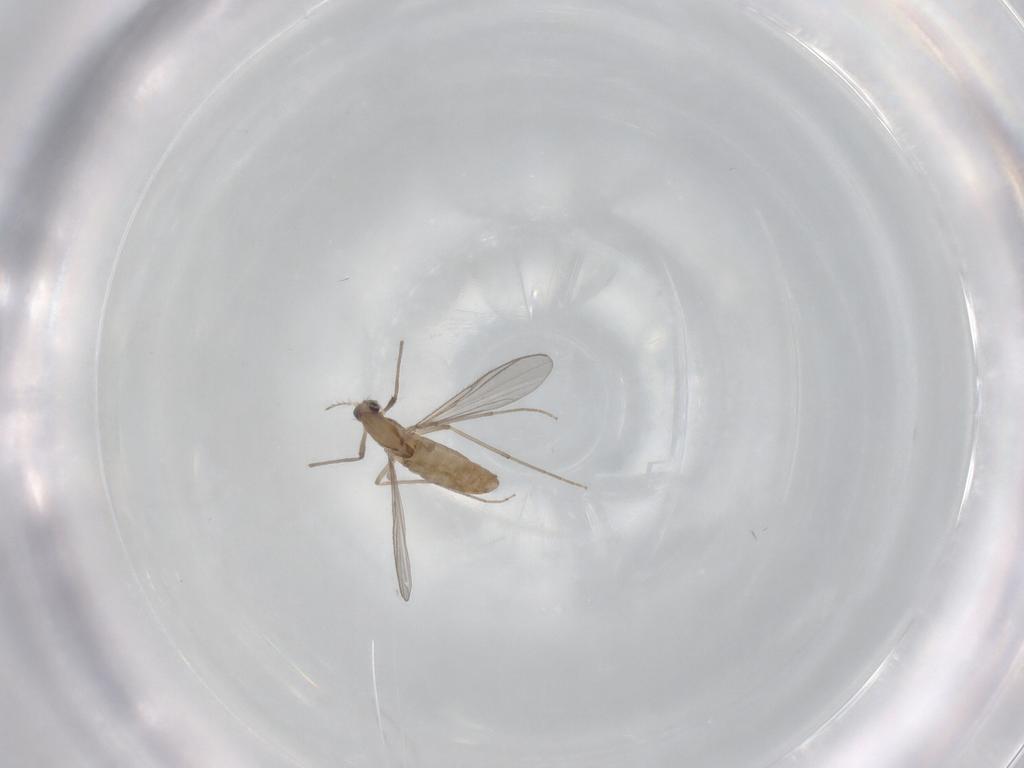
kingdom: Animalia
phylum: Arthropoda
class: Insecta
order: Diptera
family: Chironomidae
